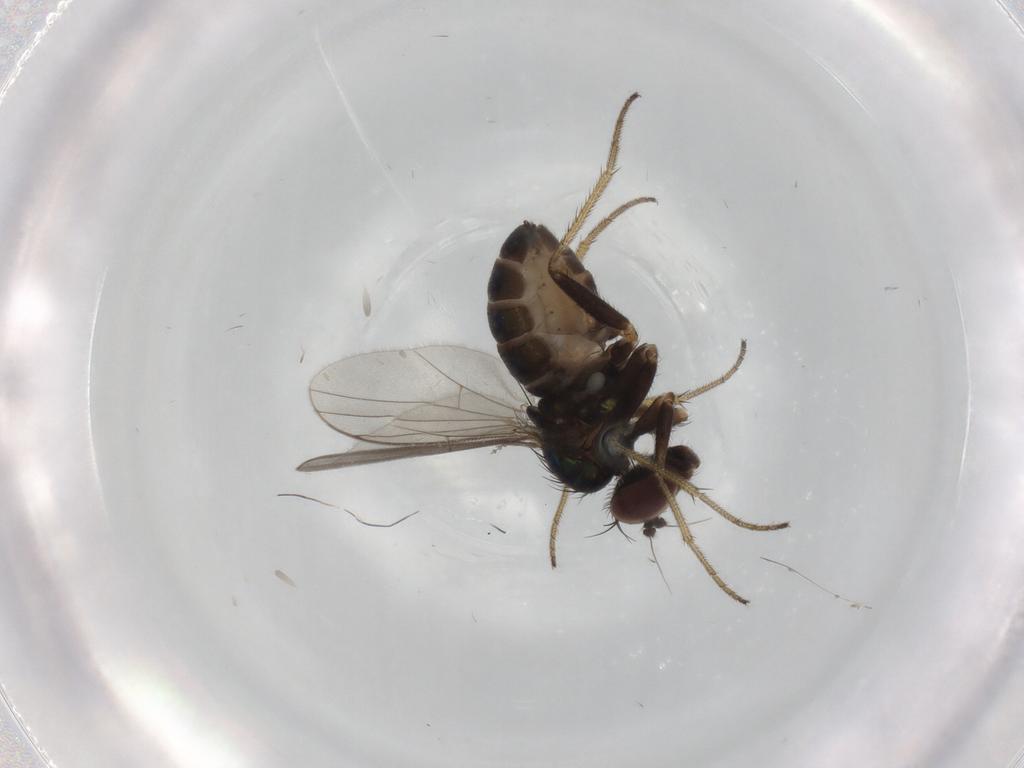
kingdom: Animalia
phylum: Arthropoda
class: Insecta
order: Diptera
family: Psychodidae
